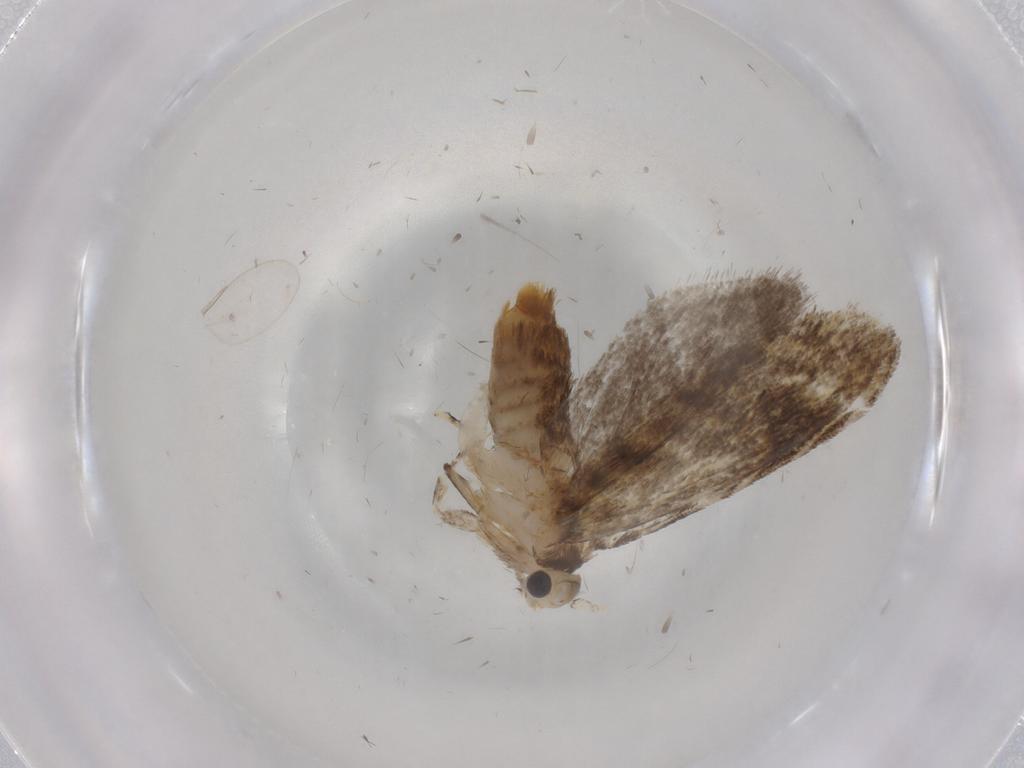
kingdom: Animalia
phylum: Arthropoda
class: Insecta
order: Lepidoptera
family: Tineidae
